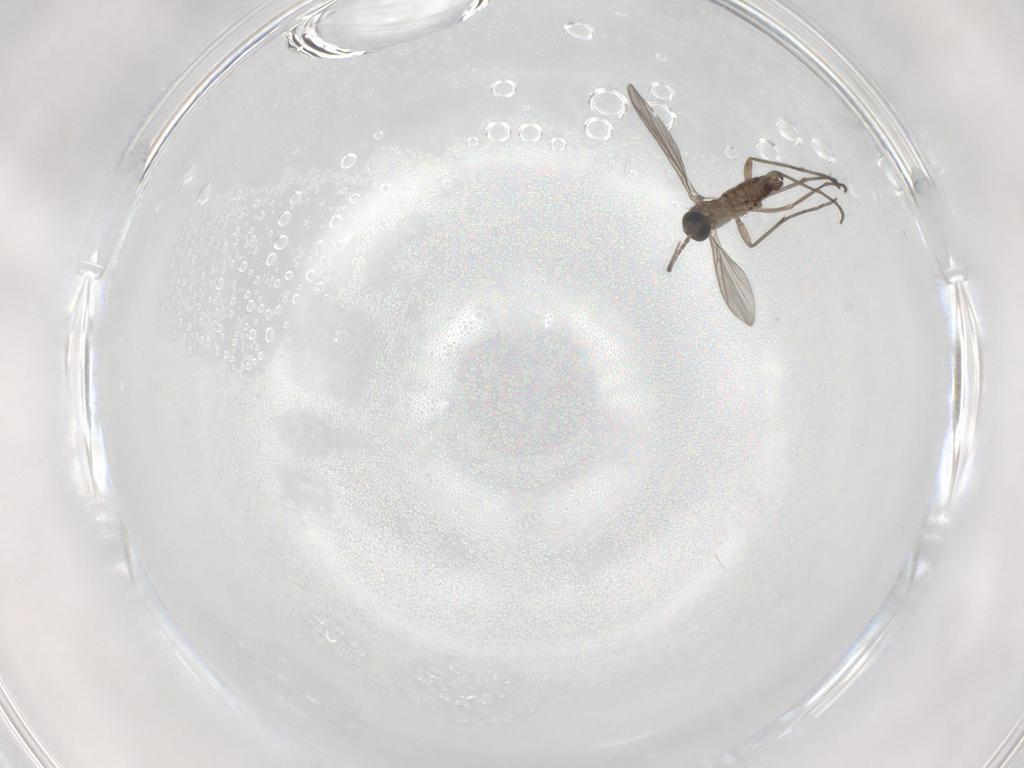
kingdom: Animalia
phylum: Arthropoda
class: Insecta
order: Diptera
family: Sciaridae
